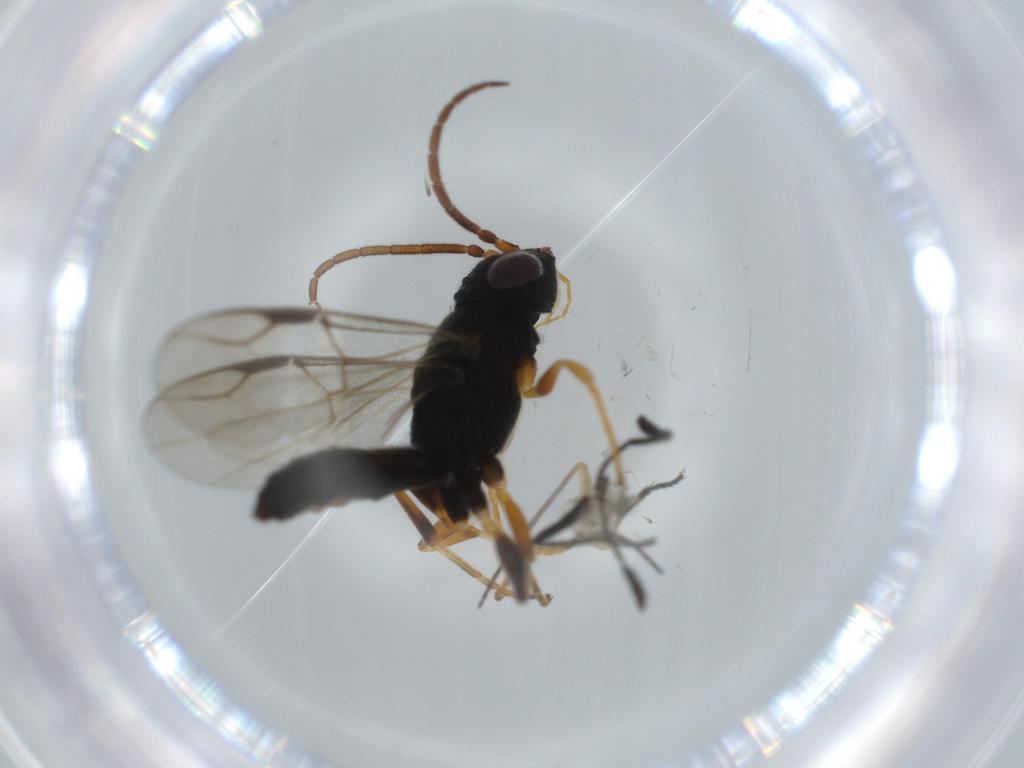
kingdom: Animalia
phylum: Arthropoda
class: Insecta
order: Hymenoptera
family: Dryinidae
